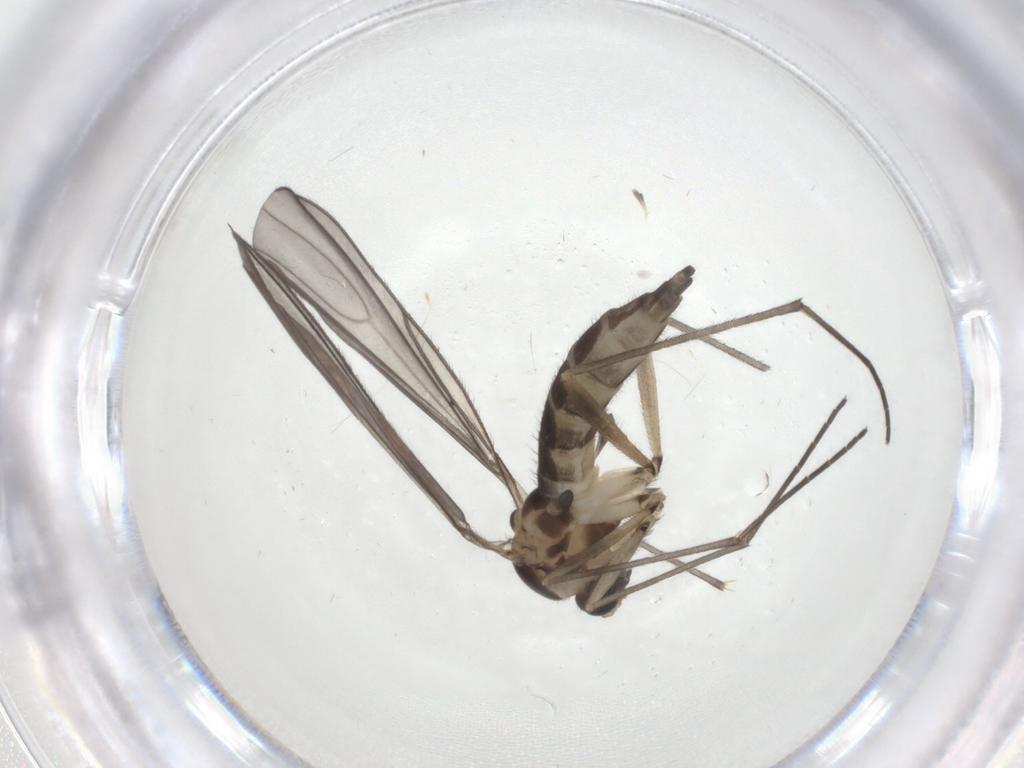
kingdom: Animalia
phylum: Arthropoda
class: Insecta
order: Diptera
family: Sciaridae
